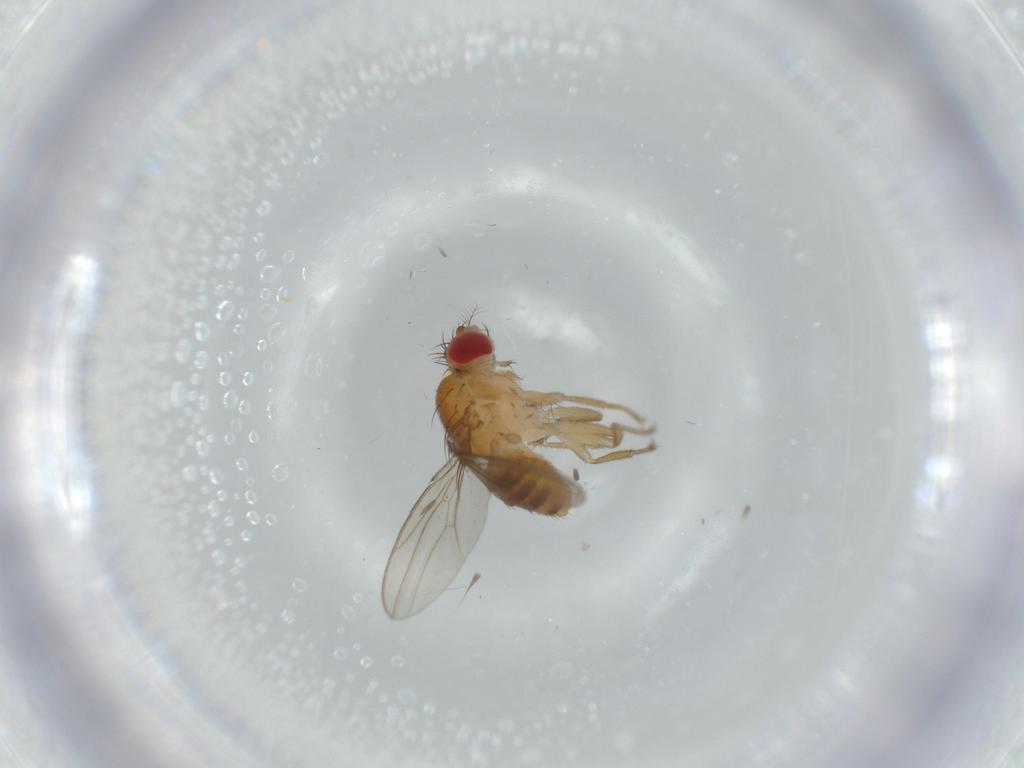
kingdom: Animalia
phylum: Arthropoda
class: Insecta
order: Diptera
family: Drosophilidae
